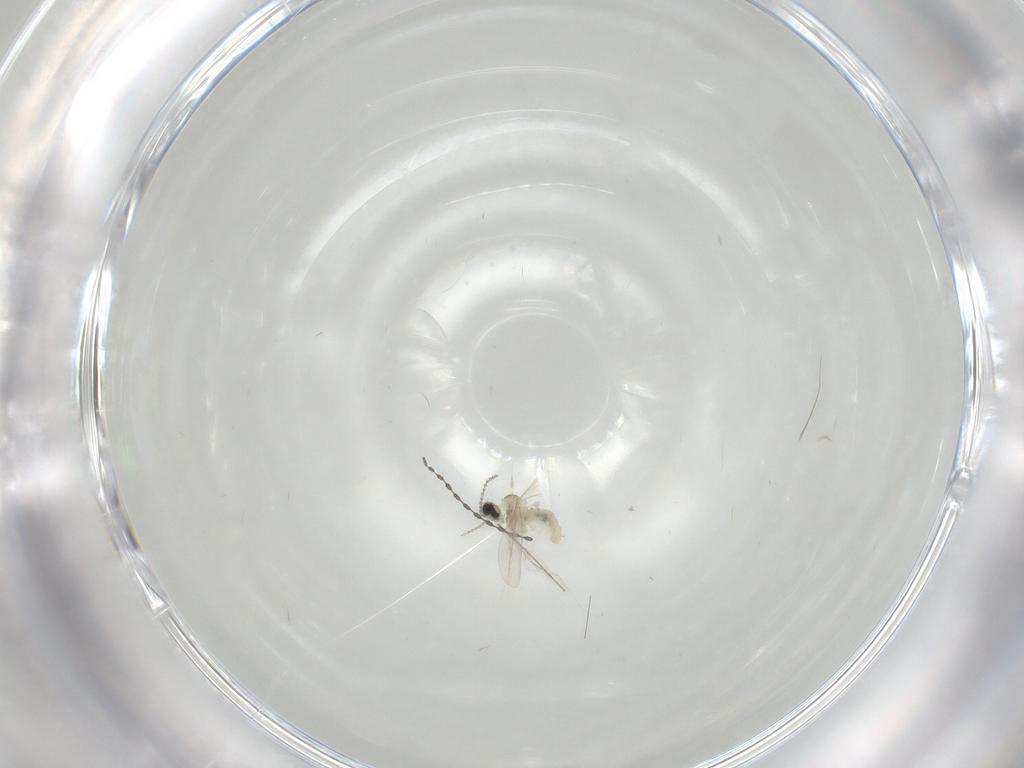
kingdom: Animalia
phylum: Arthropoda
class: Insecta
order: Diptera
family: Cecidomyiidae
